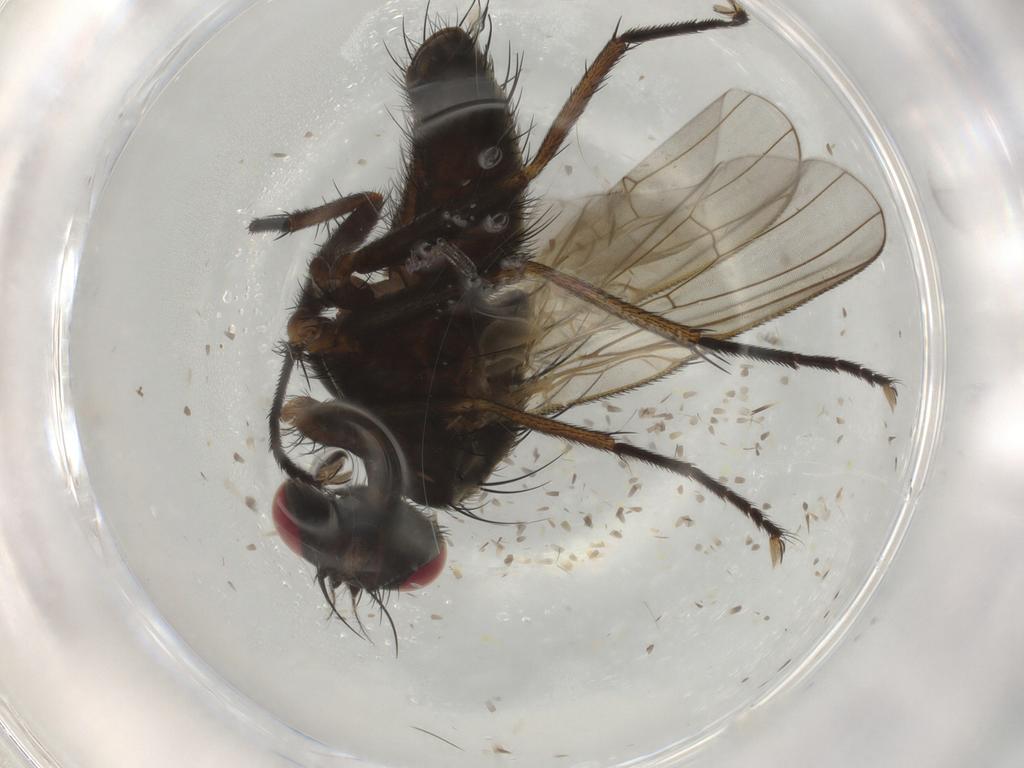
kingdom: Animalia
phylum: Arthropoda
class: Insecta
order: Diptera
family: Muscidae
